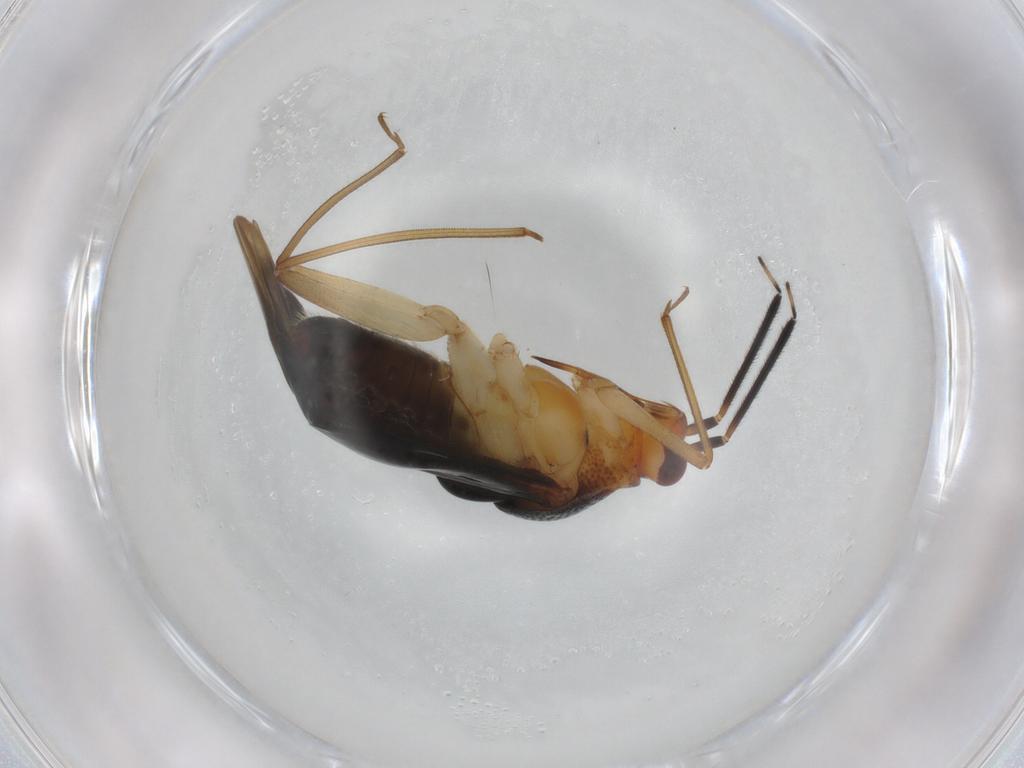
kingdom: Animalia
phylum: Arthropoda
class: Insecta
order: Hemiptera
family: Miridae
